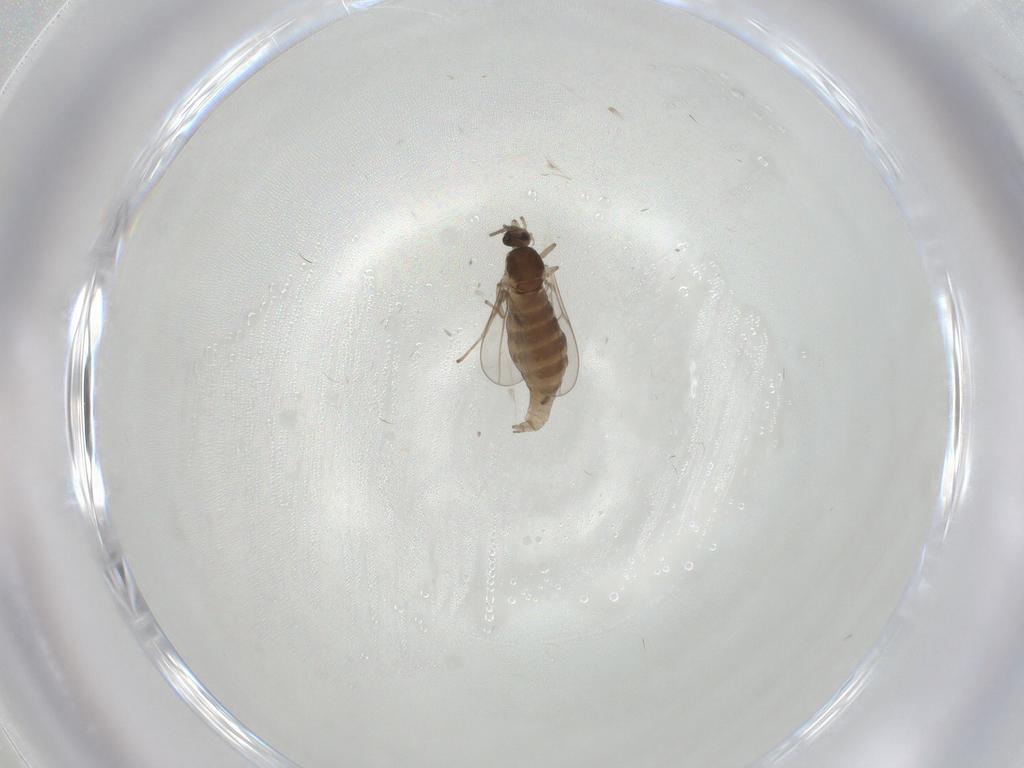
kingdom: Animalia
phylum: Arthropoda
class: Insecta
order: Diptera
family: Cecidomyiidae
